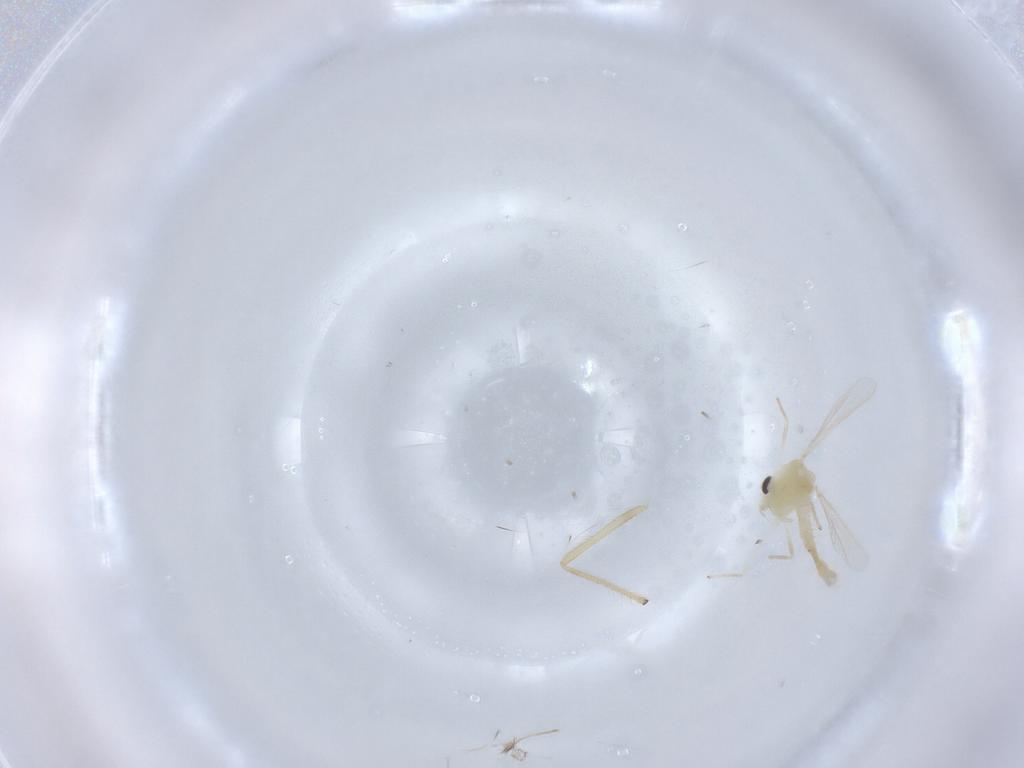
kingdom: Animalia
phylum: Arthropoda
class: Insecta
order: Diptera
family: Chironomidae
